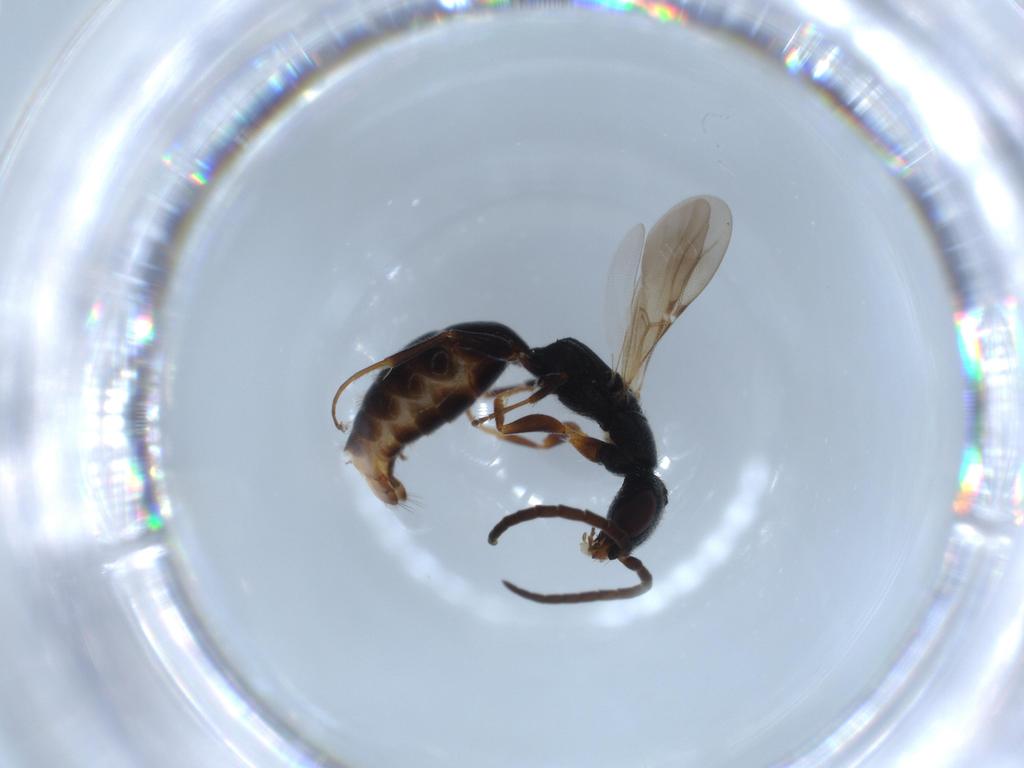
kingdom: Animalia
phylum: Arthropoda
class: Insecta
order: Hymenoptera
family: Bethylidae
